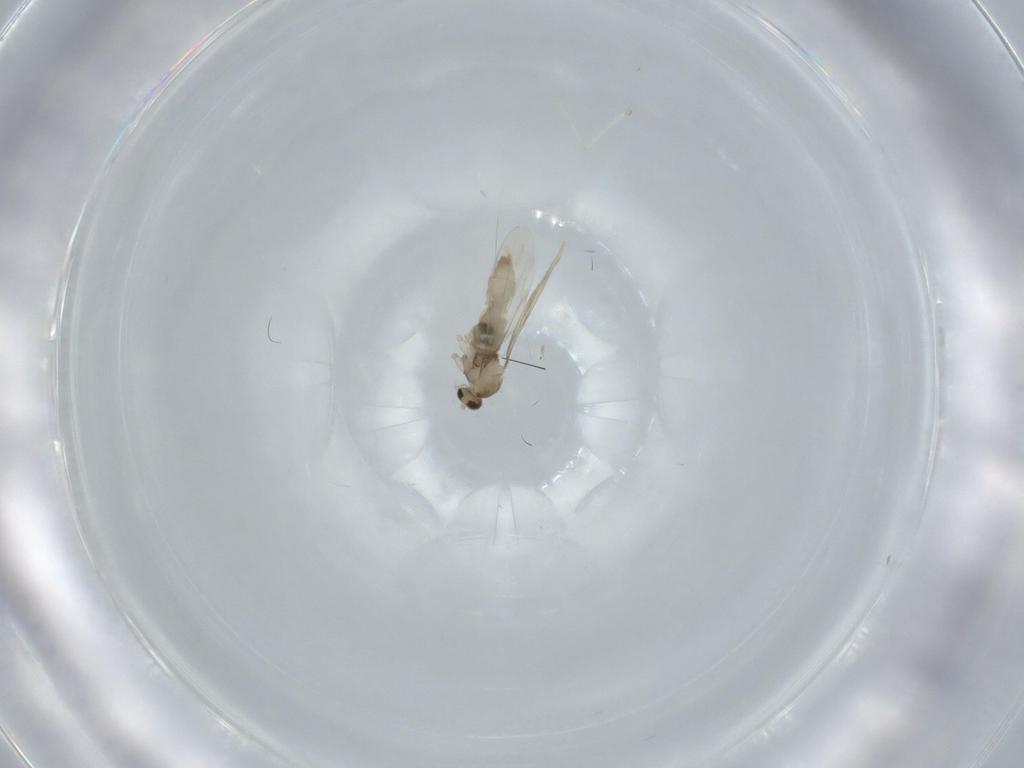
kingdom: Animalia
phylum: Arthropoda
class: Insecta
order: Diptera
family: Cecidomyiidae
